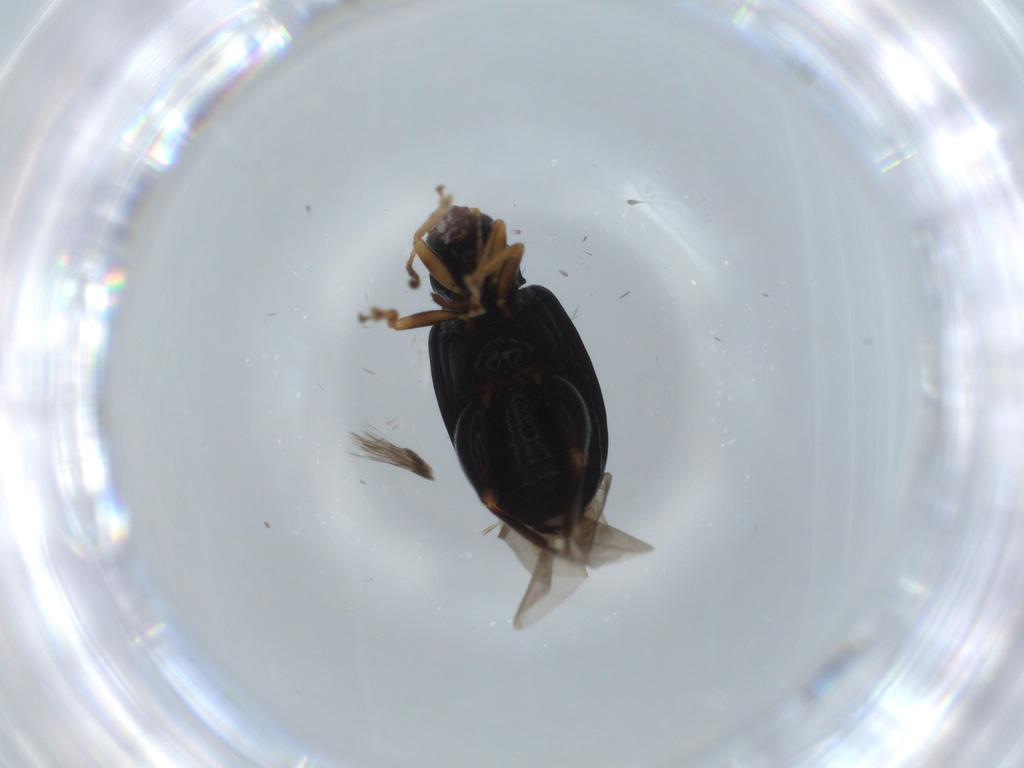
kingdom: Animalia
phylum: Arthropoda
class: Insecta
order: Coleoptera
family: Chrysomelidae
